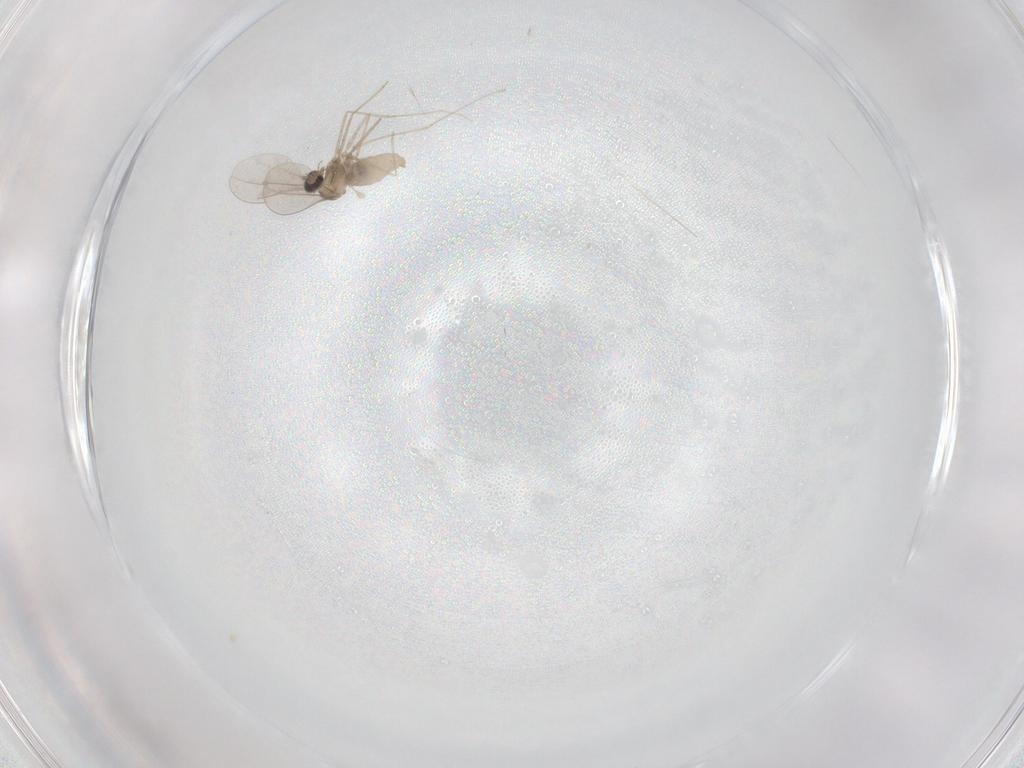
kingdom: Animalia
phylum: Arthropoda
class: Insecta
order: Diptera
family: Cecidomyiidae
